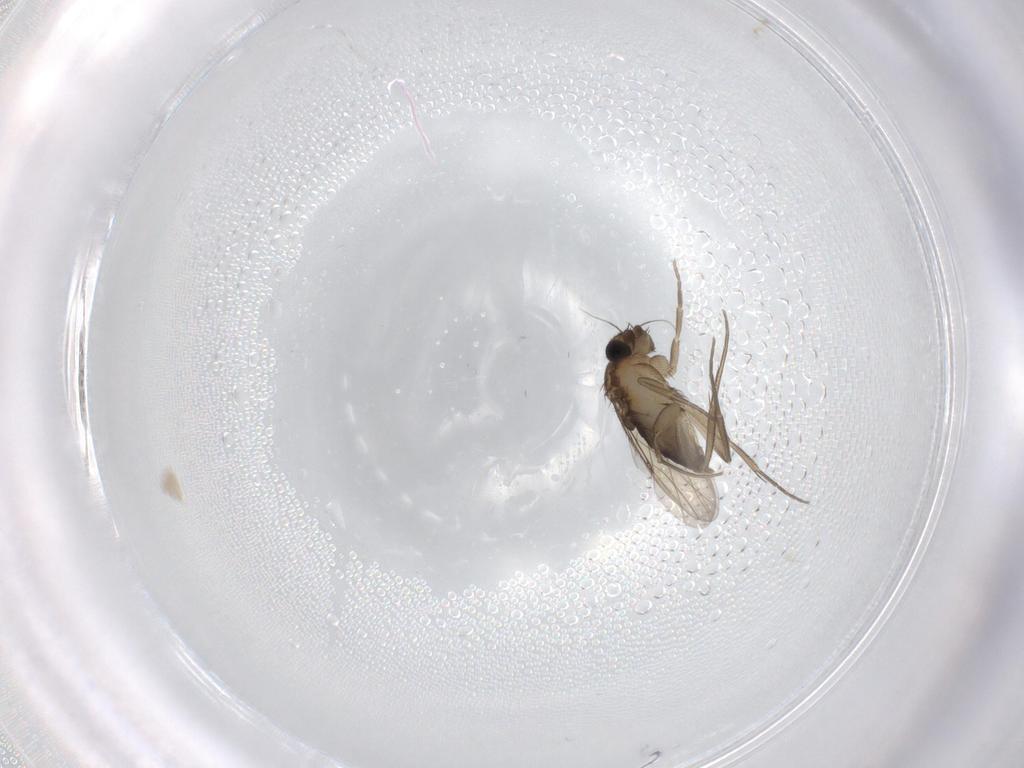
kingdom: Animalia
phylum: Arthropoda
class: Insecta
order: Diptera
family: Phoridae
